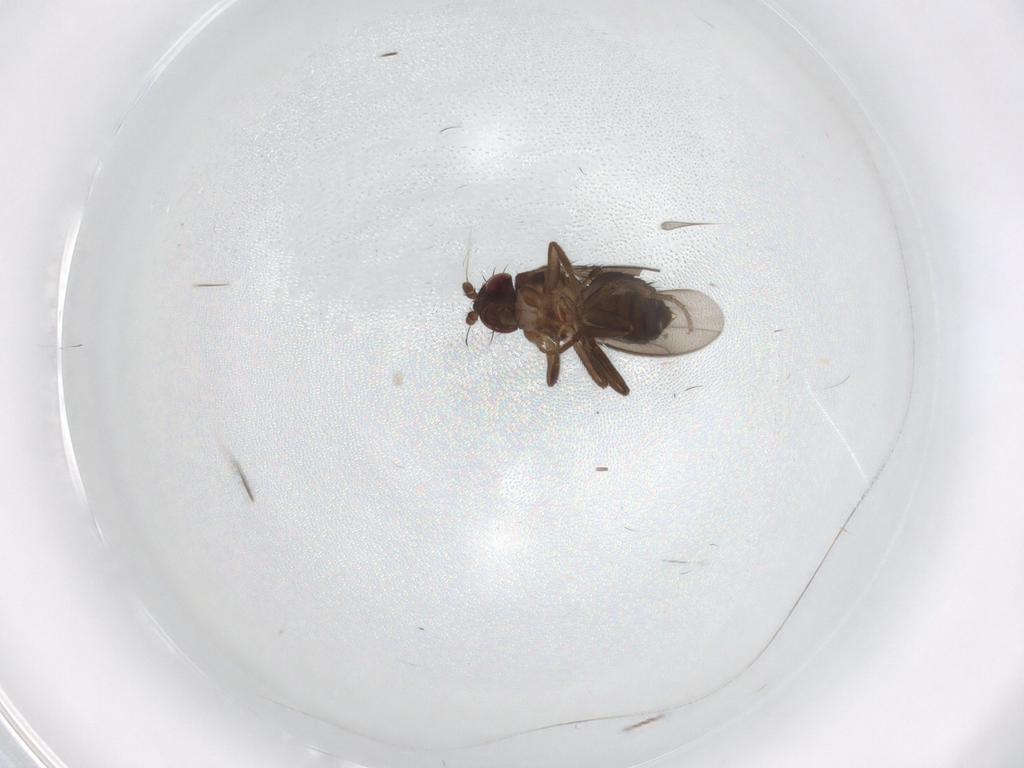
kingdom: Animalia
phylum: Arthropoda
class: Insecta
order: Diptera
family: Sphaeroceridae
